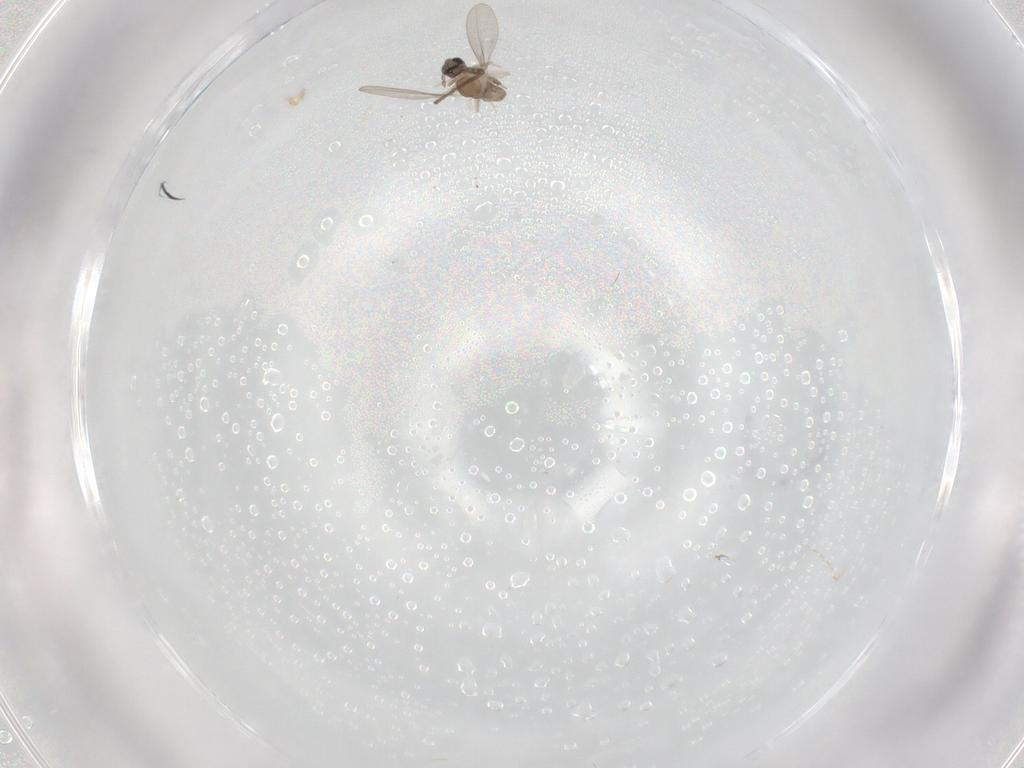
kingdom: Animalia
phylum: Arthropoda
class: Insecta
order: Diptera
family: Cecidomyiidae
